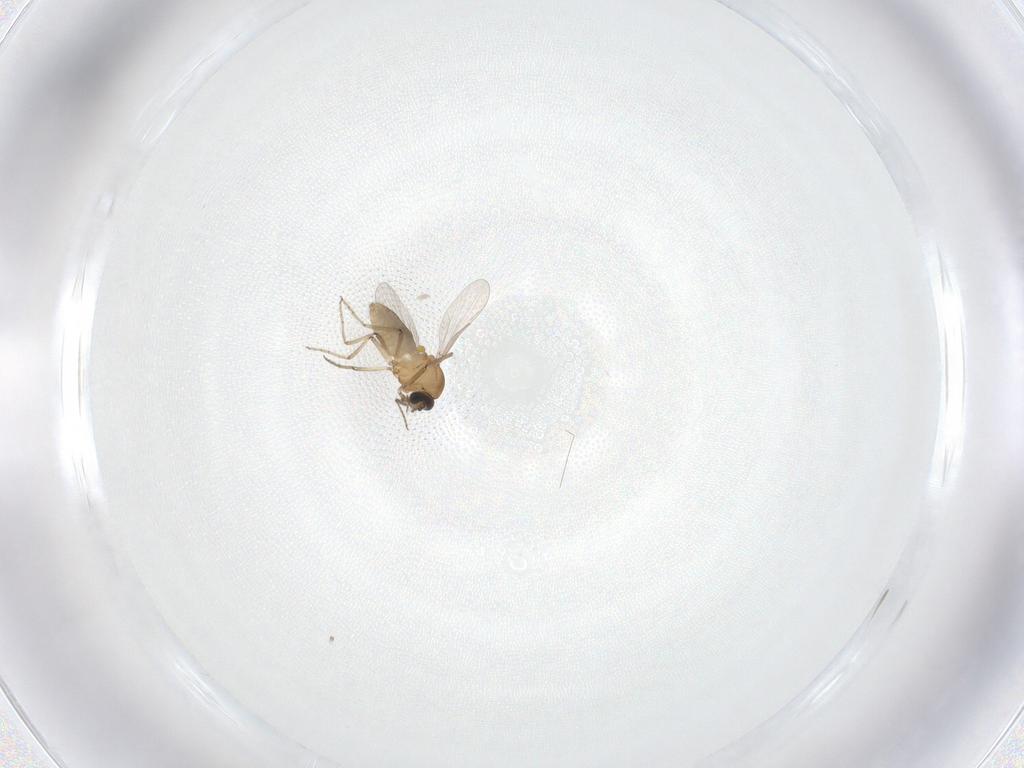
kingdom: Animalia
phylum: Arthropoda
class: Insecta
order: Diptera
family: Ceratopogonidae
